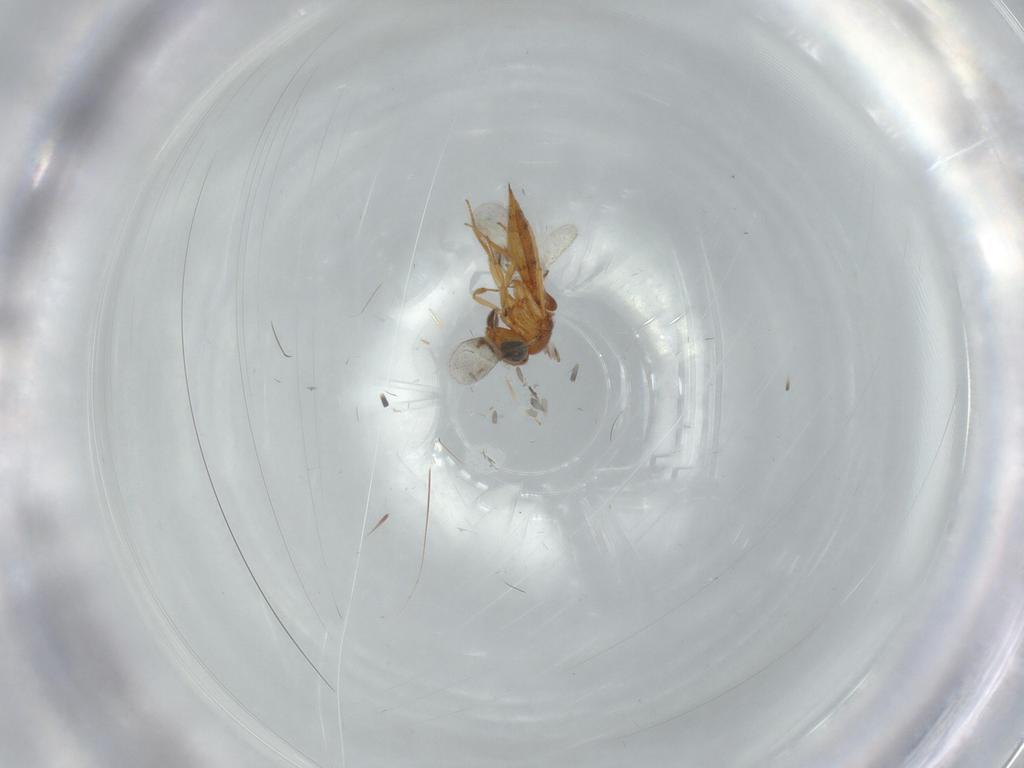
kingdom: Animalia
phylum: Arthropoda
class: Insecta
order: Hymenoptera
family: Scelionidae
